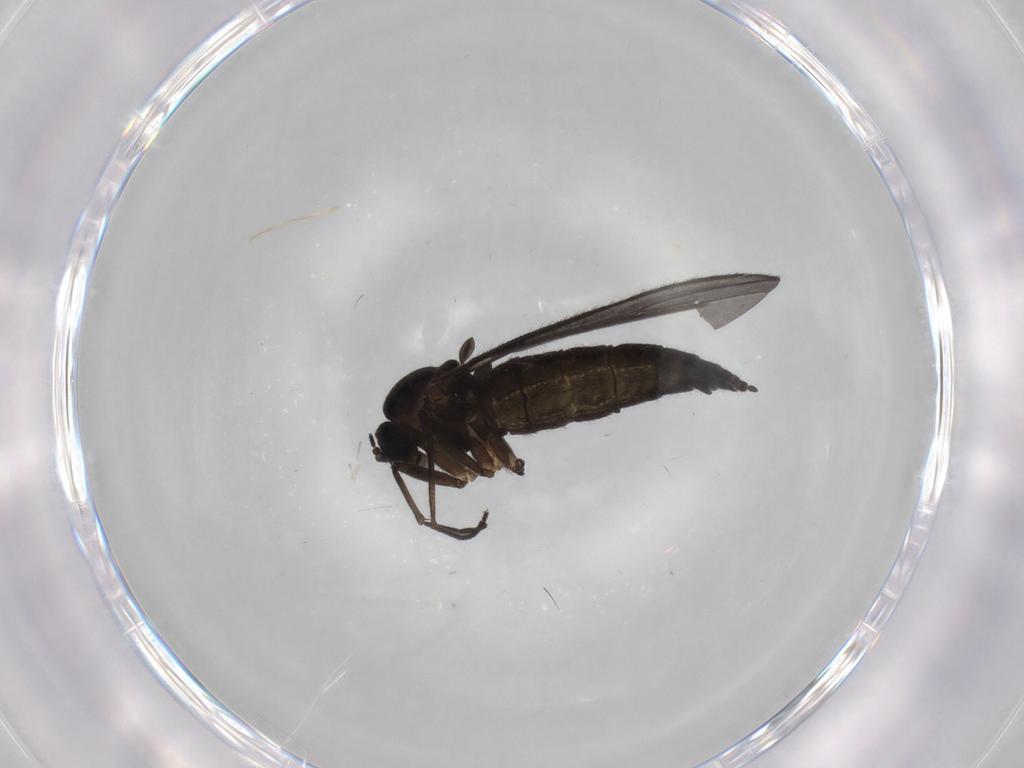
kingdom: Animalia
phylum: Arthropoda
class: Insecta
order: Diptera
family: Sciaridae
